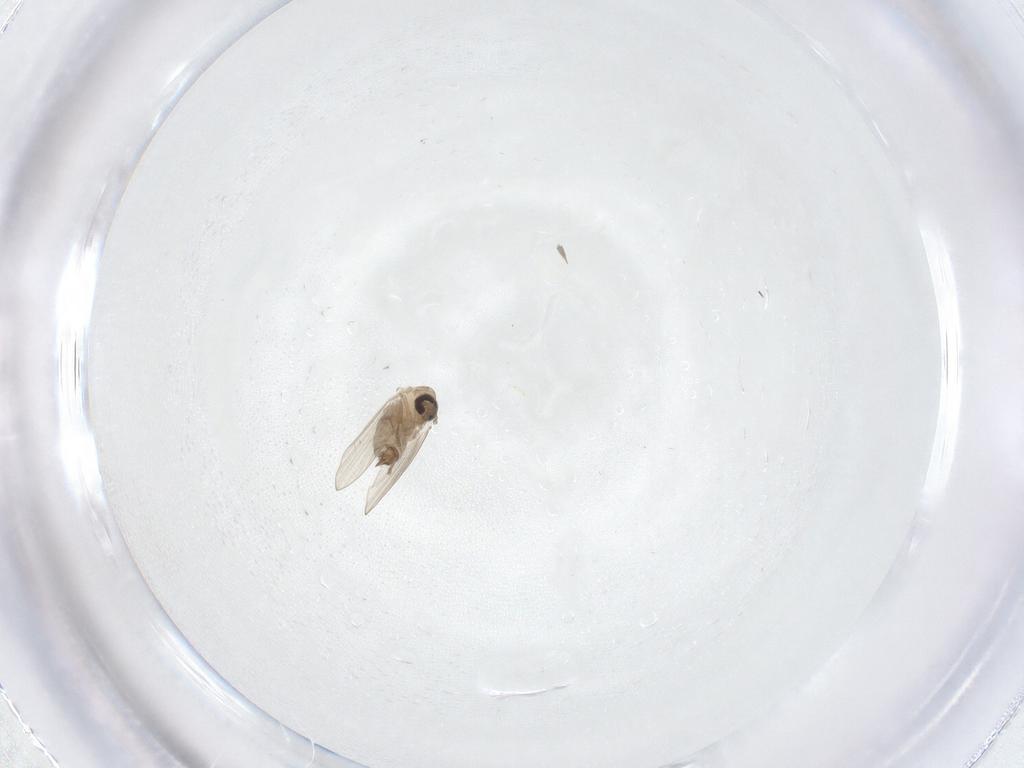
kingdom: Animalia
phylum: Arthropoda
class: Insecta
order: Diptera
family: Psychodidae
